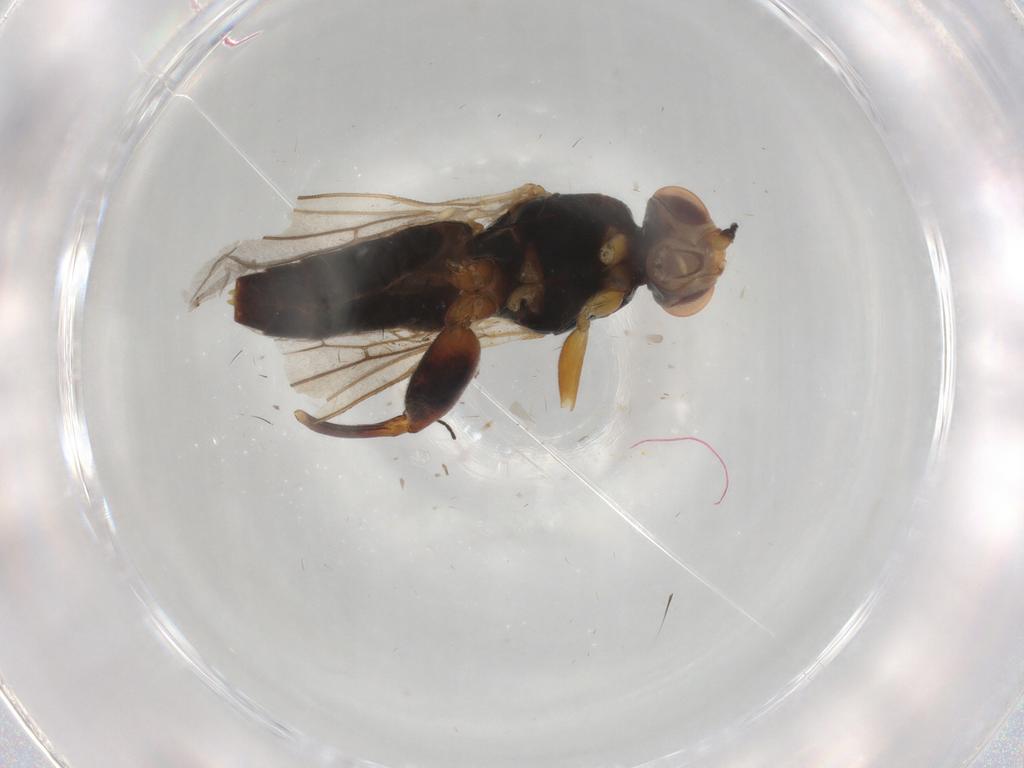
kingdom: Animalia
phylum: Arthropoda
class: Insecta
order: Diptera
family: Chloropidae
